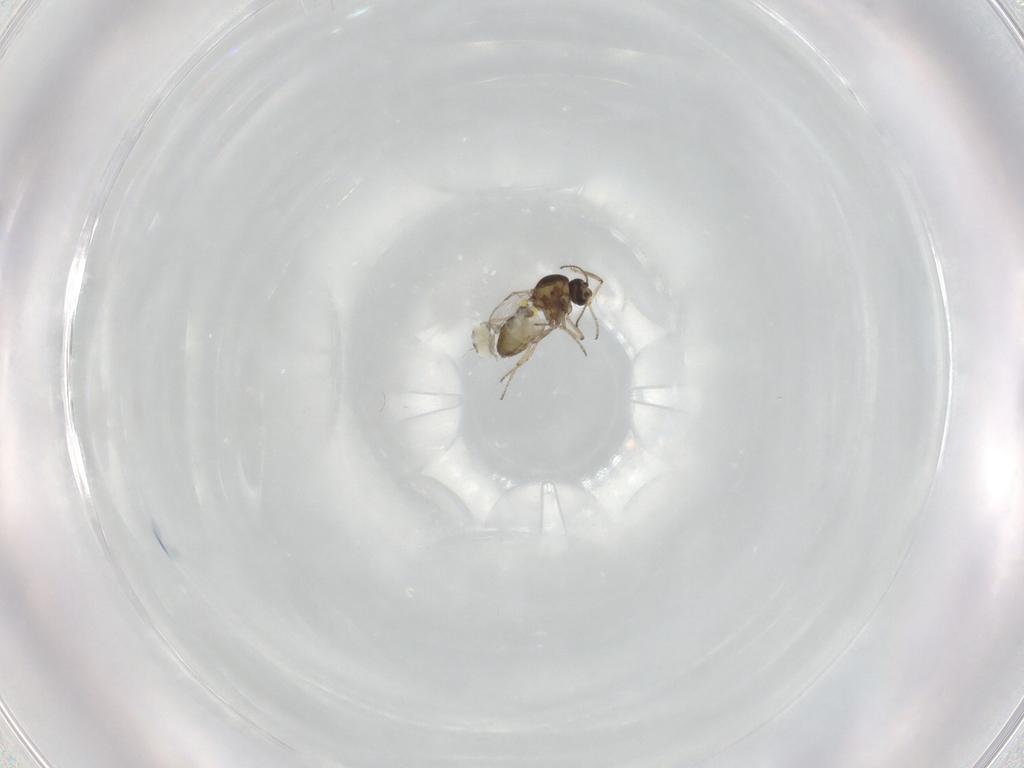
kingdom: Animalia
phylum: Arthropoda
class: Insecta
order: Diptera
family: Ceratopogonidae
